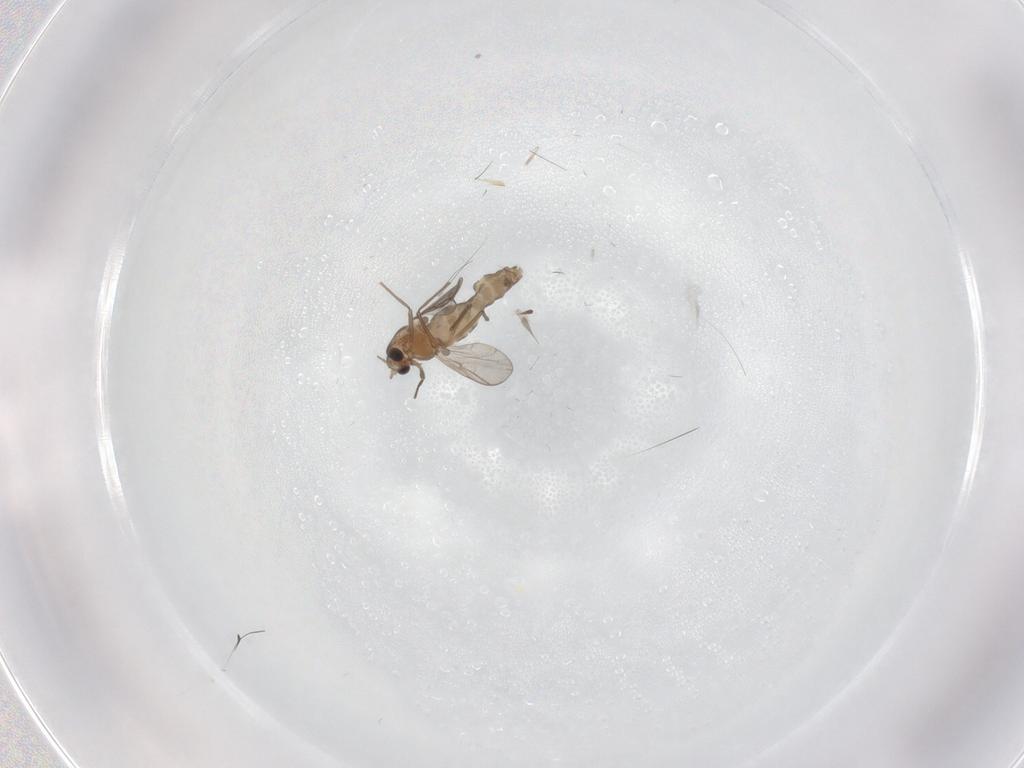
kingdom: Animalia
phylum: Arthropoda
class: Insecta
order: Diptera
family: Chironomidae
